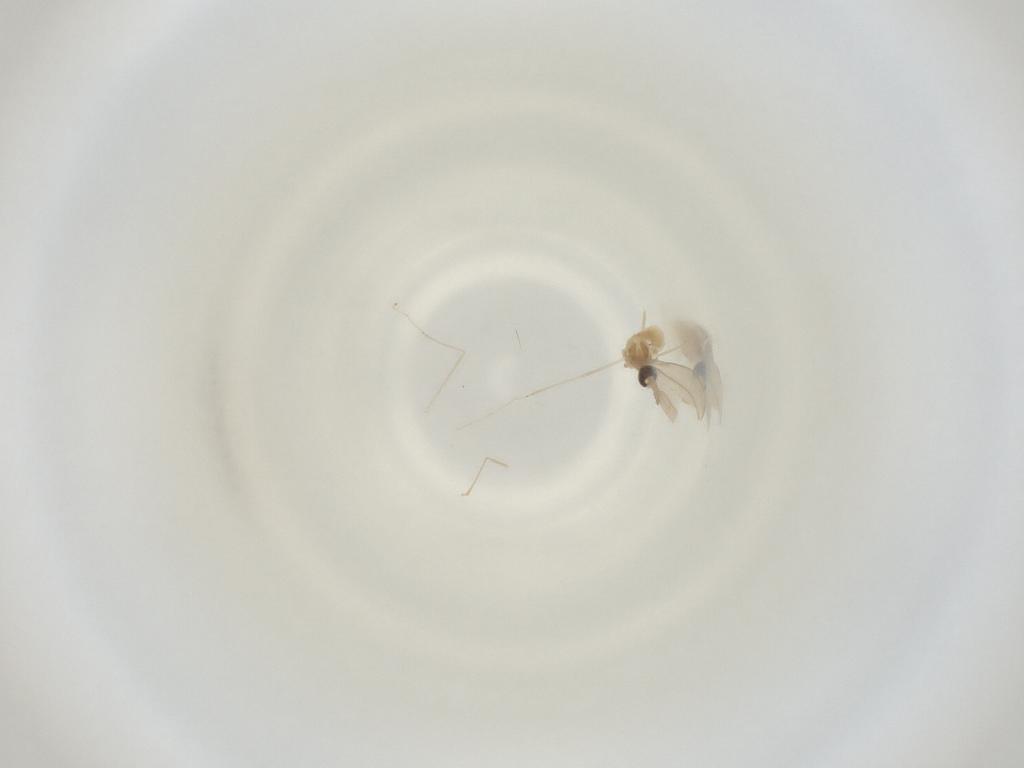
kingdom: Animalia
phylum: Arthropoda
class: Insecta
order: Diptera
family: Cecidomyiidae
